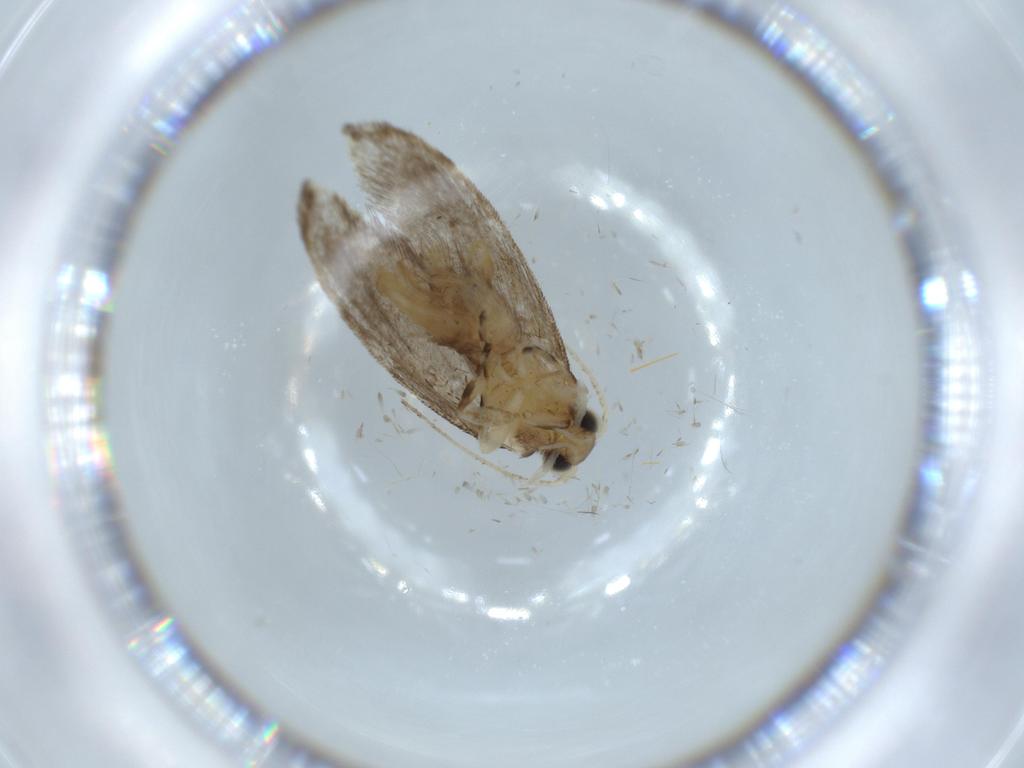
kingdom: Animalia
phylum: Arthropoda
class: Insecta
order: Lepidoptera
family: Tineidae
